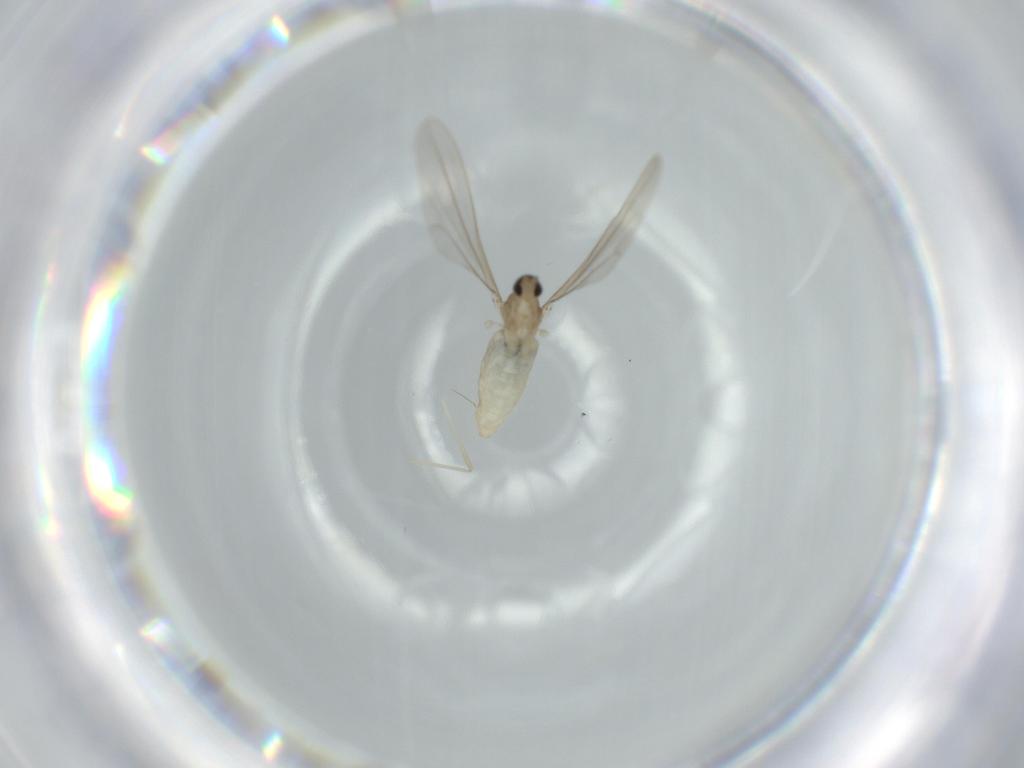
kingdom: Animalia
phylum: Arthropoda
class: Insecta
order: Diptera
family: Cecidomyiidae
